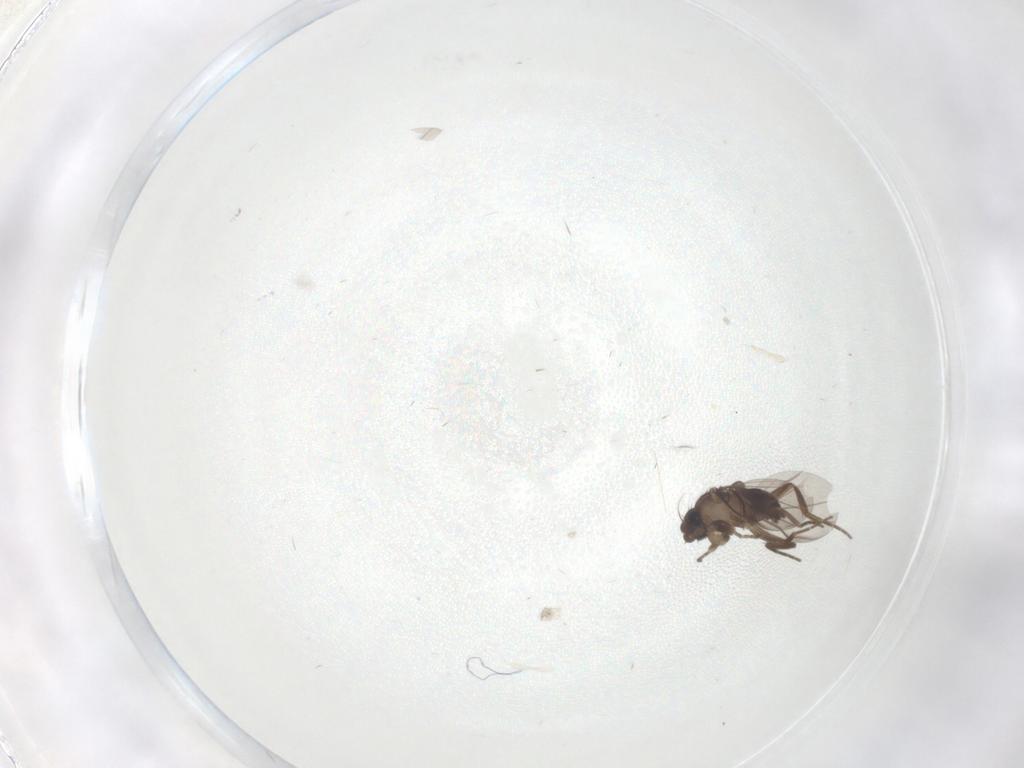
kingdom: Animalia
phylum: Arthropoda
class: Insecta
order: Diptera
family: Phoridae
